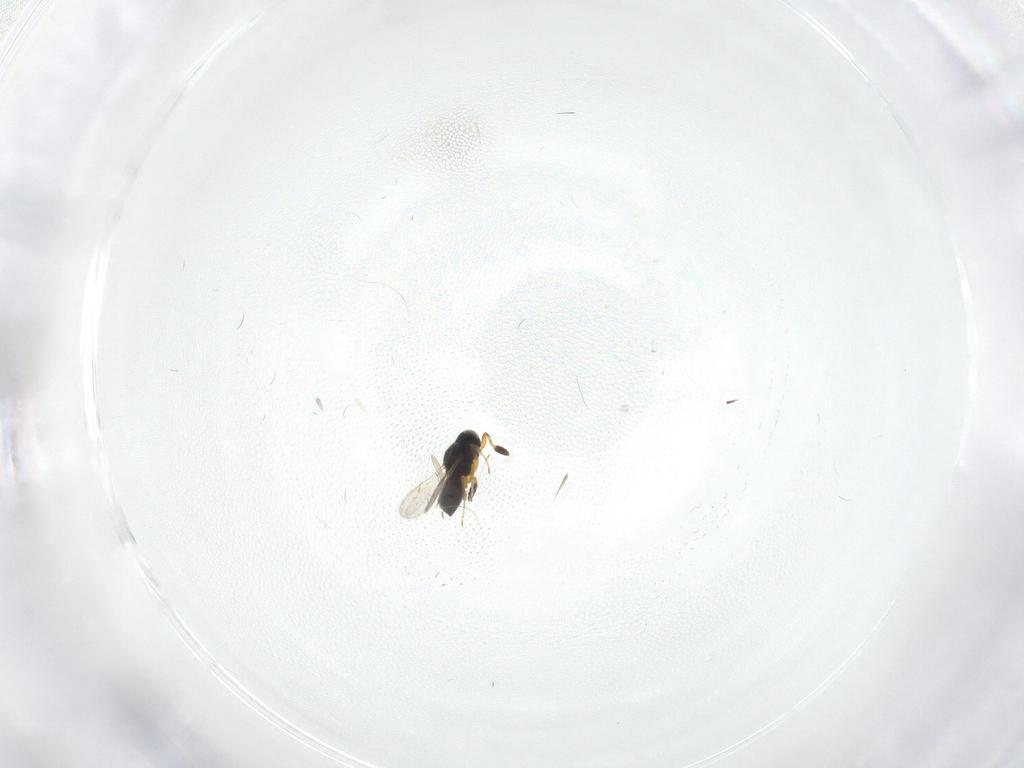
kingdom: Animalia
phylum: Arthropoda
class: Insecta
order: Hymenoptera
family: Scelionidae
